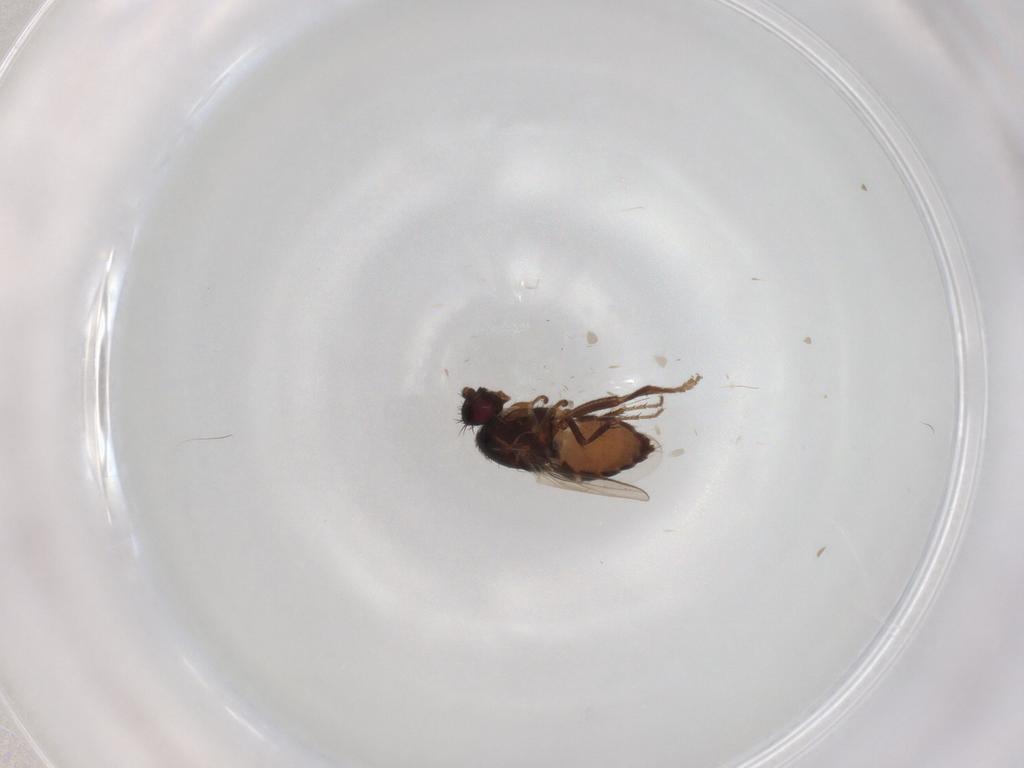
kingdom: Animalia
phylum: Arthropoda
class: Insecta
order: Diptera
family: Sphaeroceridae
